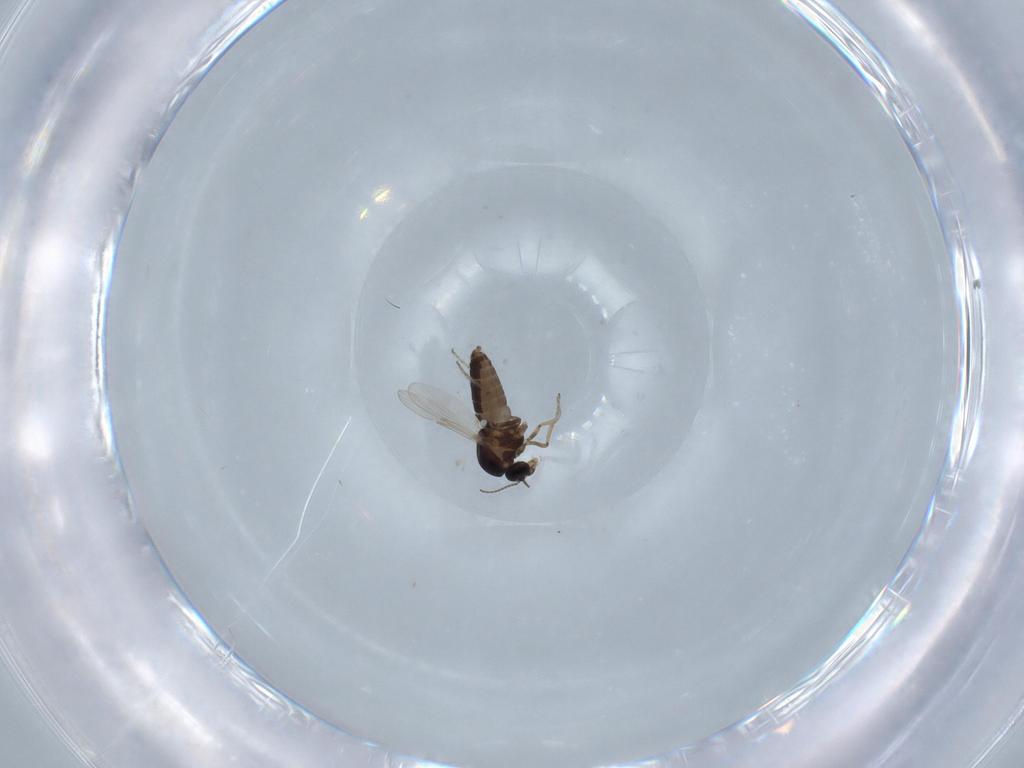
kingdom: Animalia
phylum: Arthropoda
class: Insecta
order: Diptera
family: Ceratopogonidae
